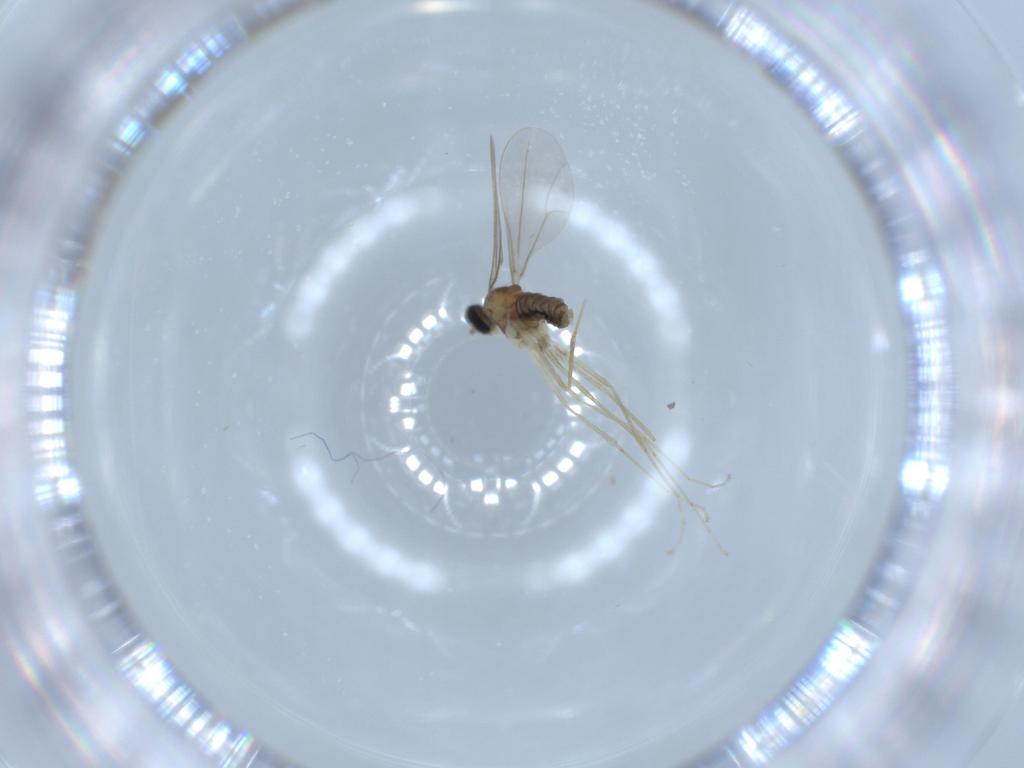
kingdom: Animalia
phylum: Arthropoda
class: Insecta
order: Diptera
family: Cecidomyiidae
